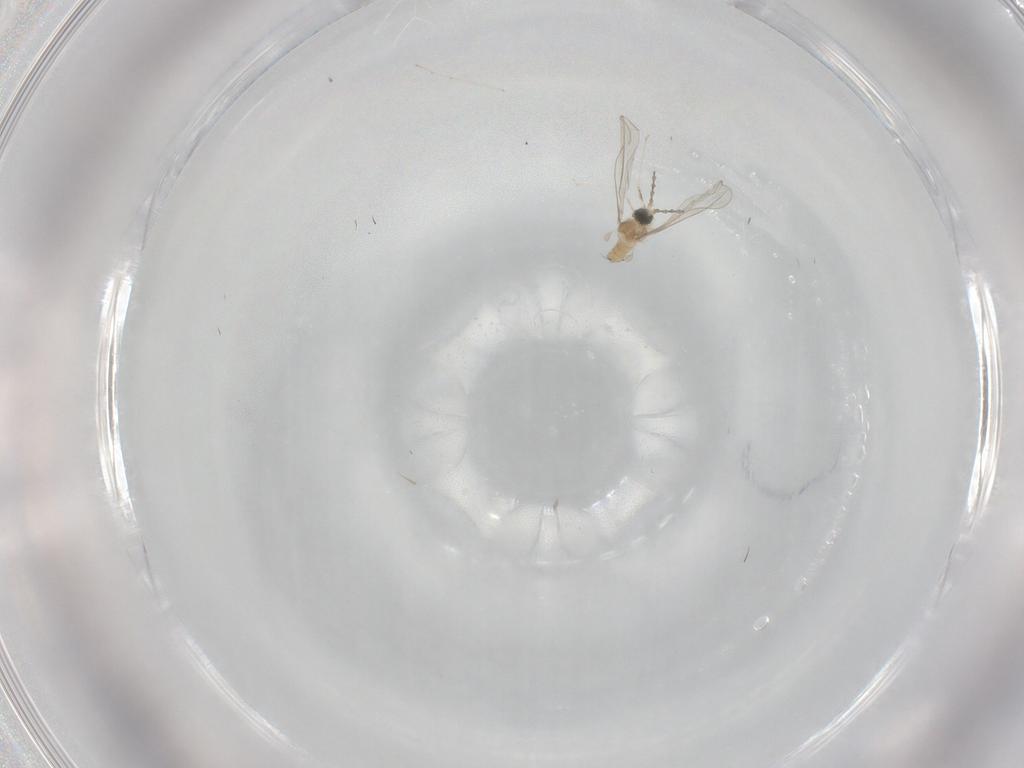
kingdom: Animalia
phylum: Arthropoda
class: Insecta
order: Diptera
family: Cecidomyiidae
